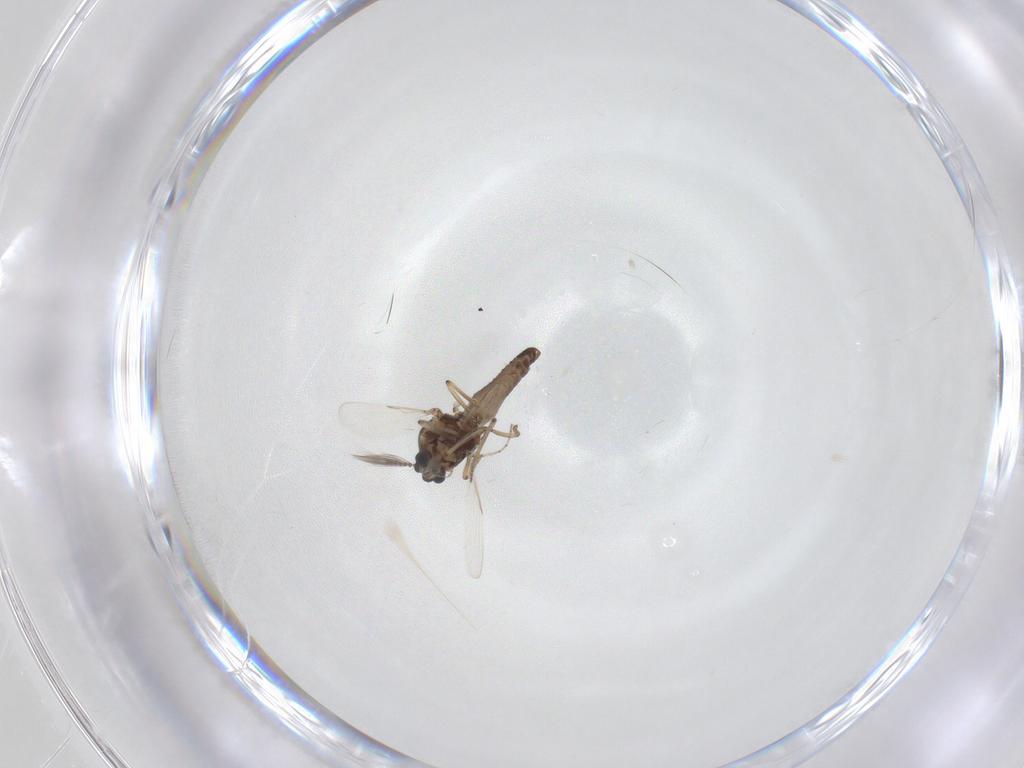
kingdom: Animalia
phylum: Arthropoda
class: Insecta
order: Diptera
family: Ceratopogonidae
